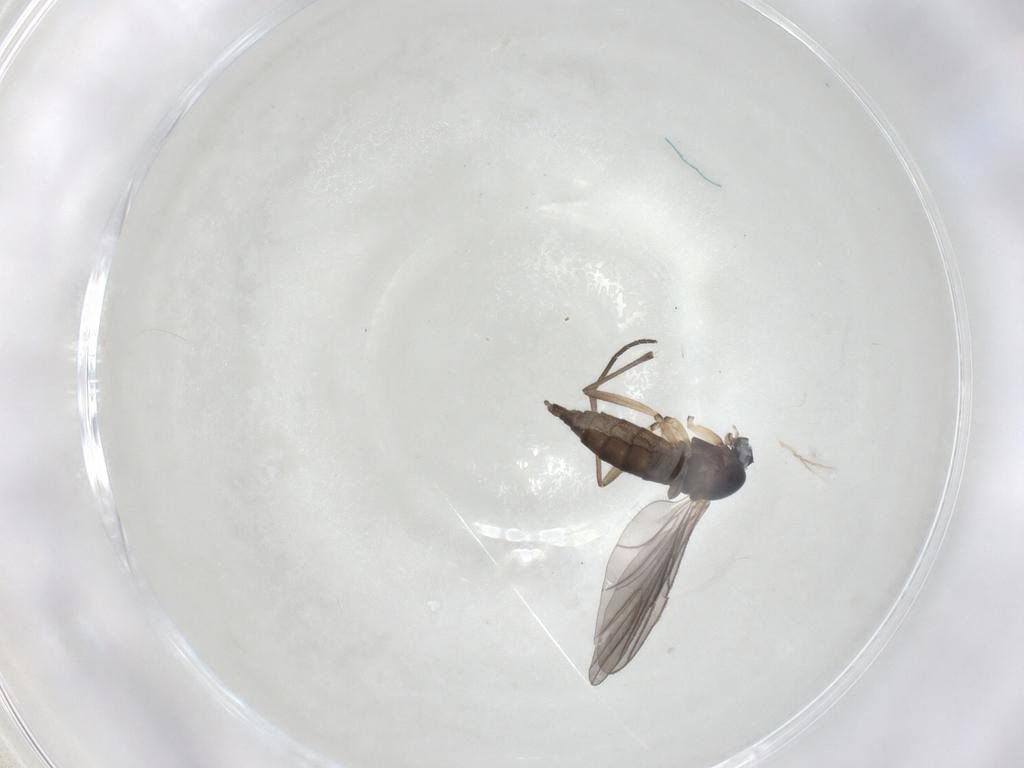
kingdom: Animalia
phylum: Arthropoda
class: Insecta
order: Diptera
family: Sciaridae
